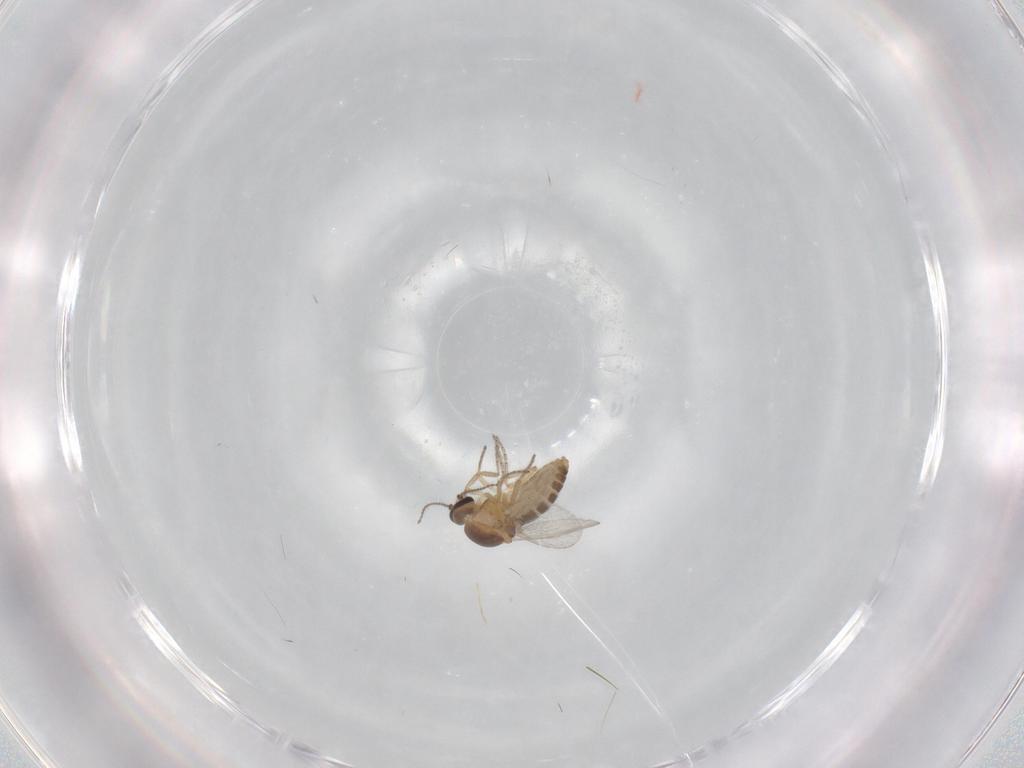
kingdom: Animalia
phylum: Arthropoda
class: Insecta
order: Diptera
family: Ceratopogonidae
